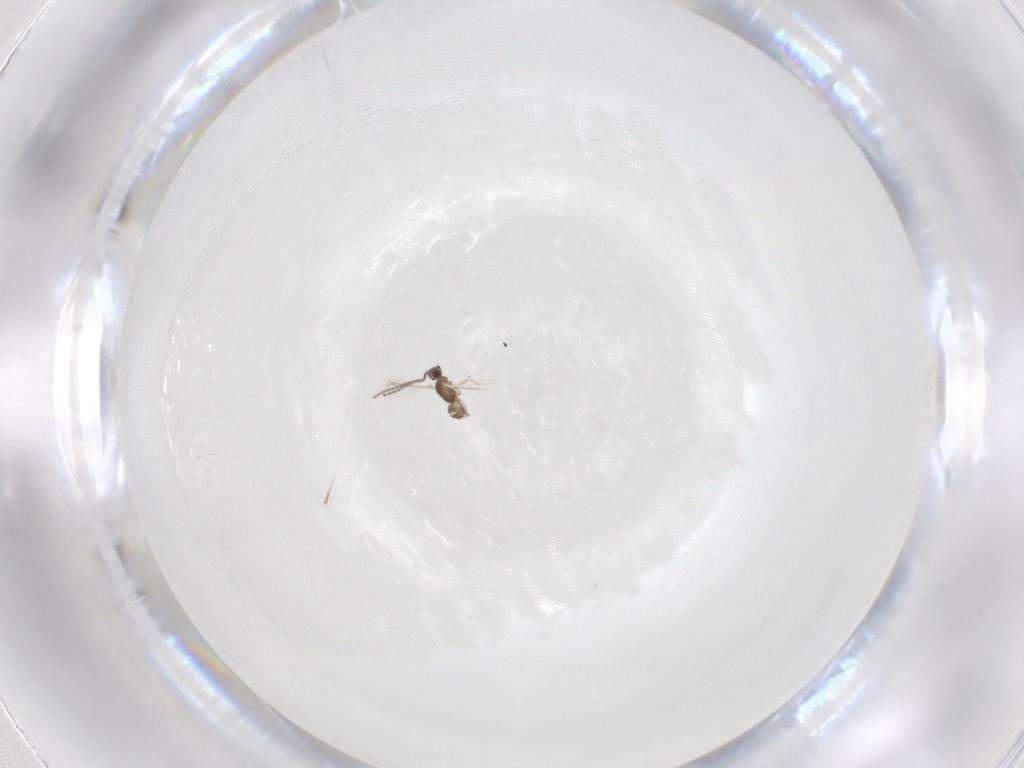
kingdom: Animalia
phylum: Arthropoda
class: Insecta
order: Hymenoptera
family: Mymaridae
